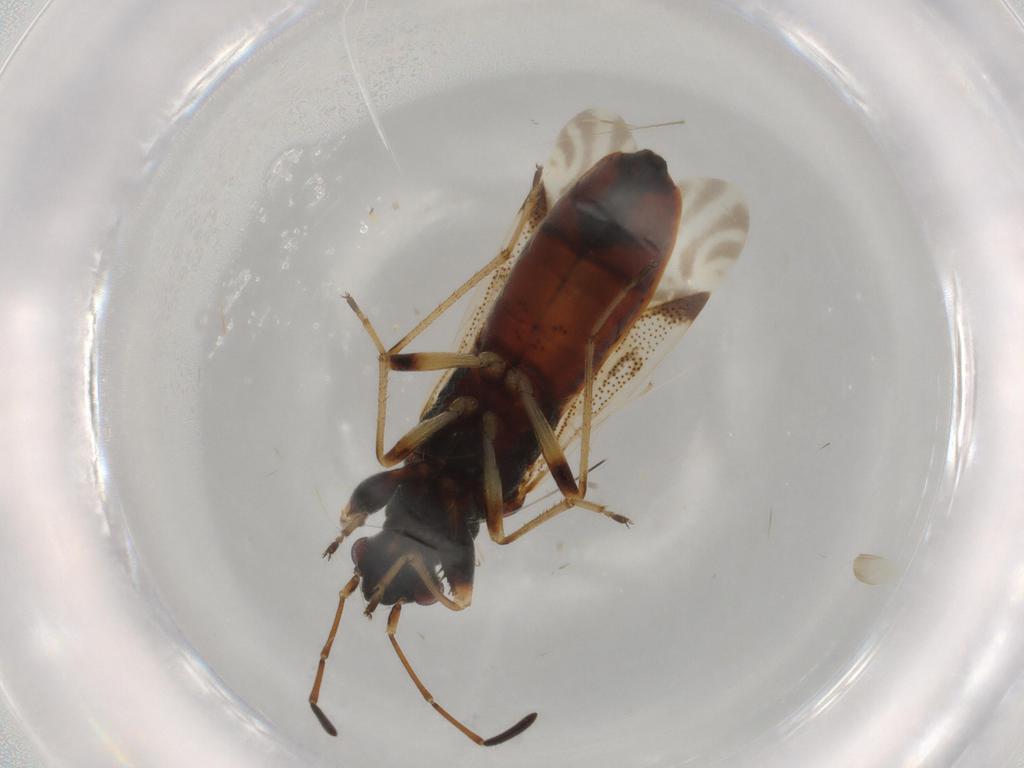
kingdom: Animalia
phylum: Arthropoda
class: Insecta
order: Hemiptera
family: Rhyparochromidae
